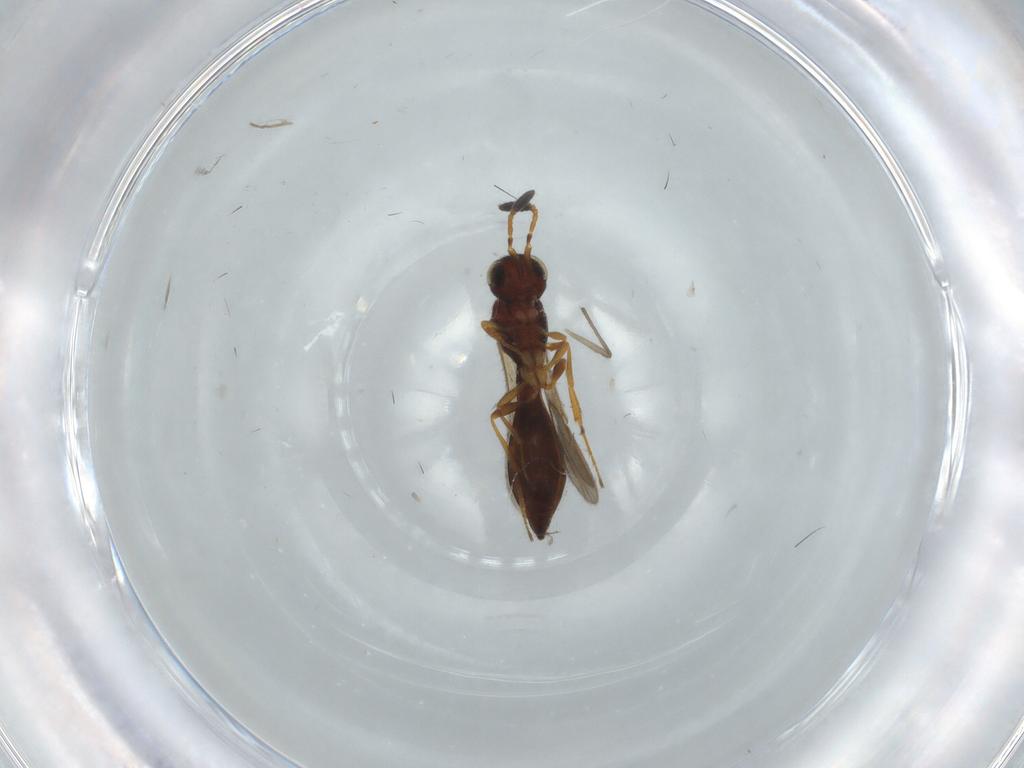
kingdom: Animalia
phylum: Arthropoda
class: Insecta
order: Hymenoptera
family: Scelionidae
